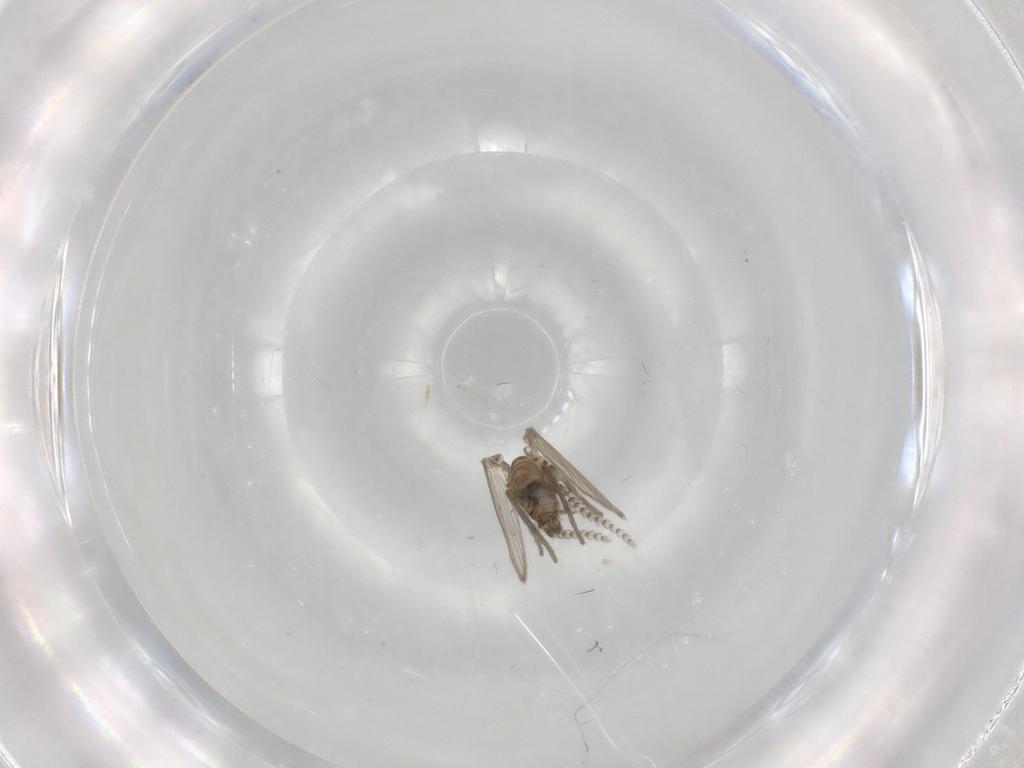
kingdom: Animalia
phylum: Arthropoda
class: Insecta
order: Diptera
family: Psychodidae
